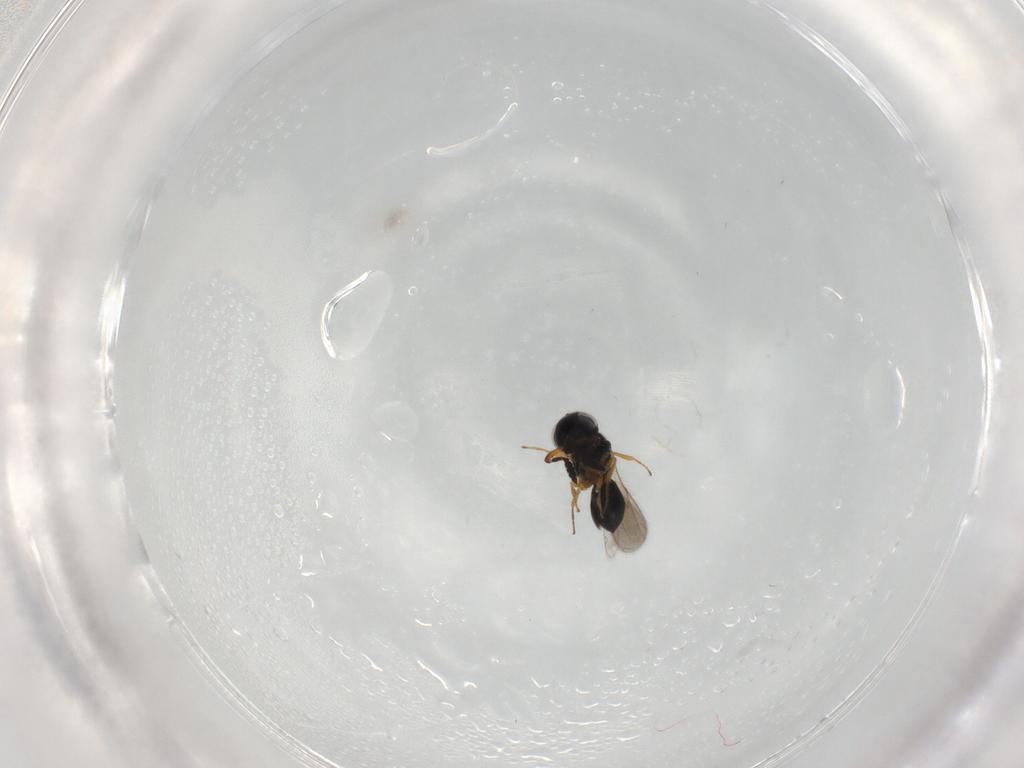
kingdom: Animalia
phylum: Arthropoda
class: Insecta
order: Hymenoptera
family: Scelionidae
